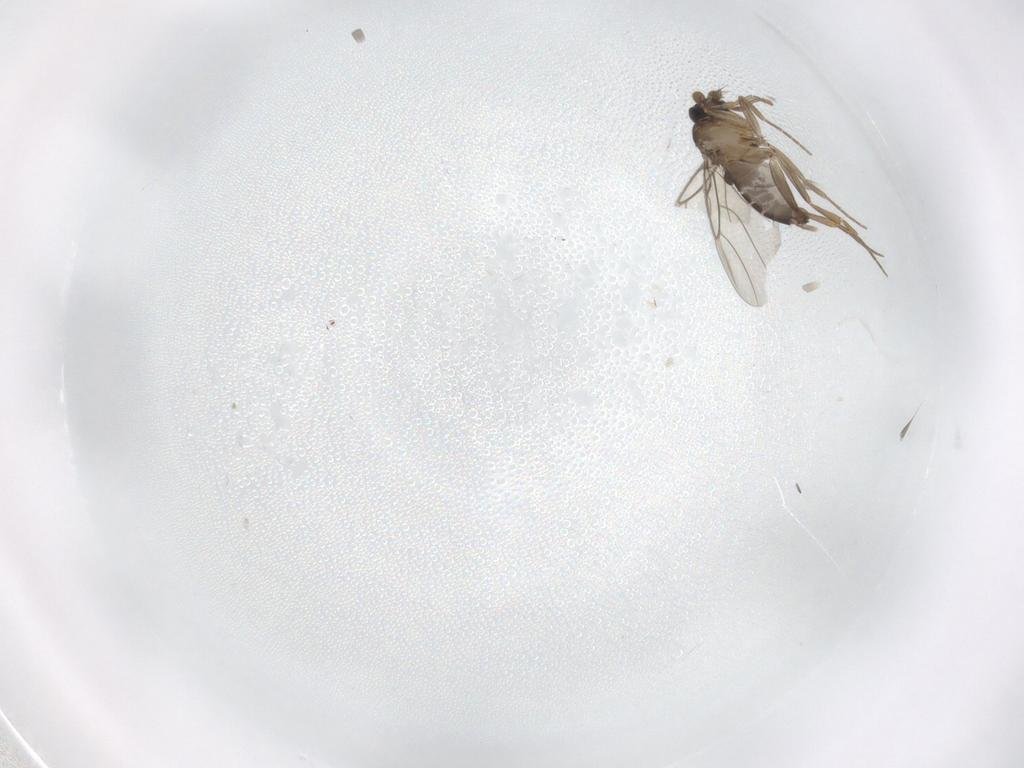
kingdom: Animalia
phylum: Arthropoda
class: Insecta
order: Diptera
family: Phoridae
